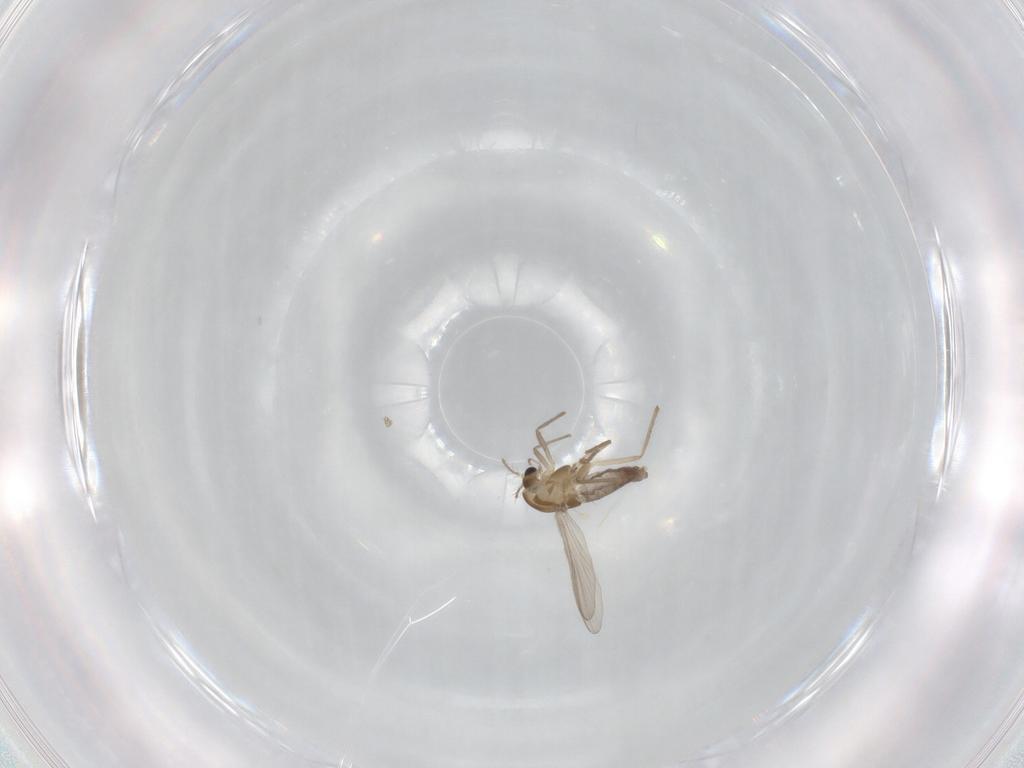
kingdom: Animalia
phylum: Arthropoda
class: Insecta
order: Diptera
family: Chironomidae
